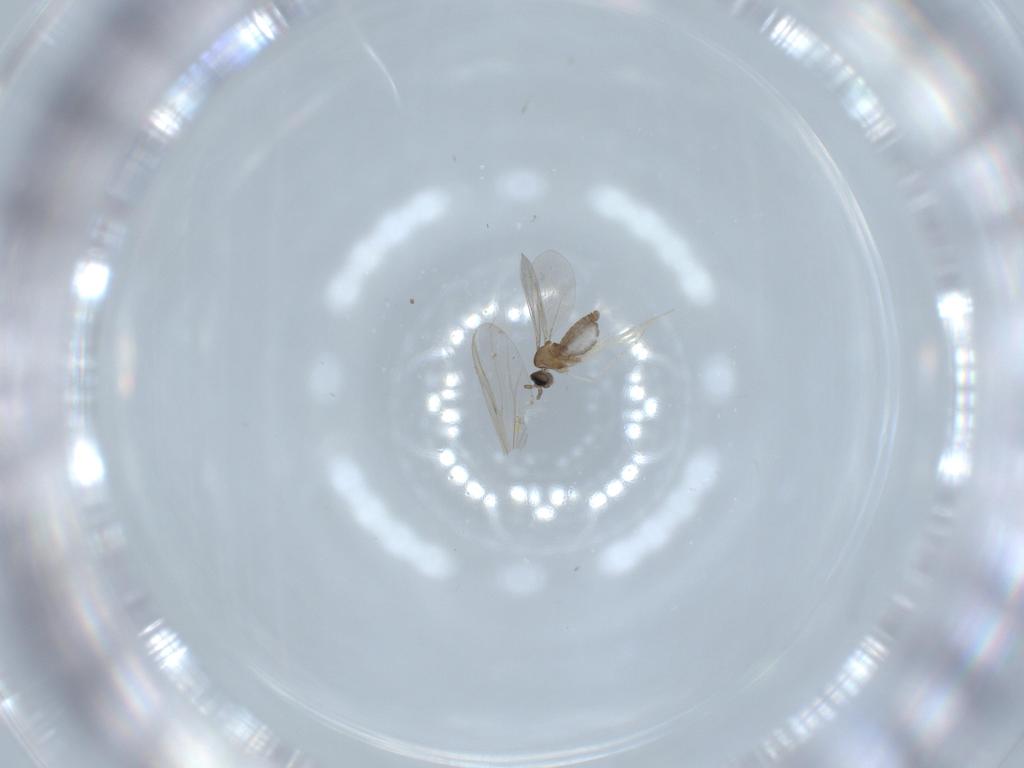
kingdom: Animalia
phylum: Arthropoda
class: Insecta
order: Diptera
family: Cecidomyiidae
